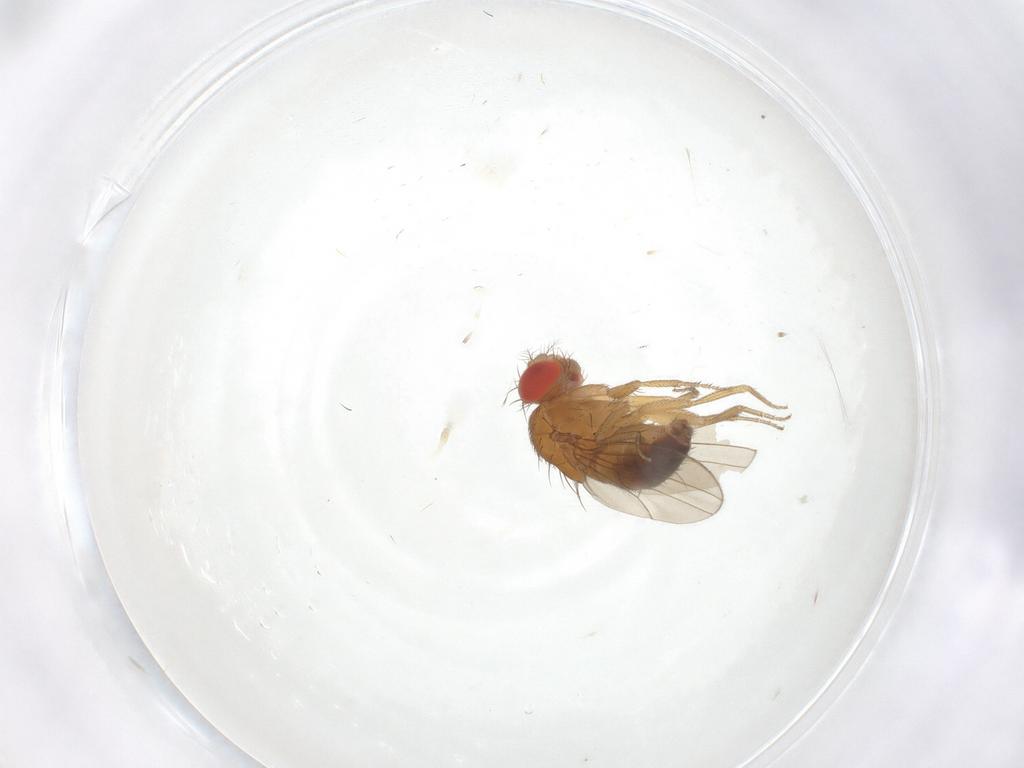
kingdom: Animalia
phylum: Arthropoda
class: Insecta
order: Diptera
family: Drosophilidae
